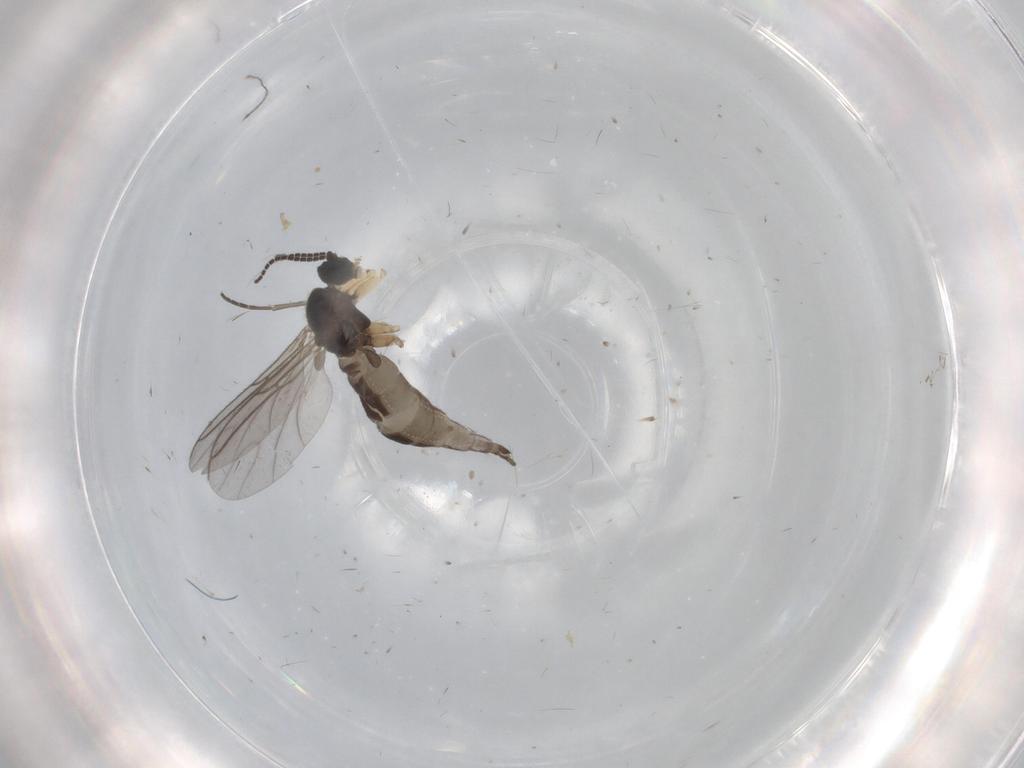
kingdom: Animalia
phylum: Arthropoda
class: Insecta
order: Diptera
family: Sciaridae
